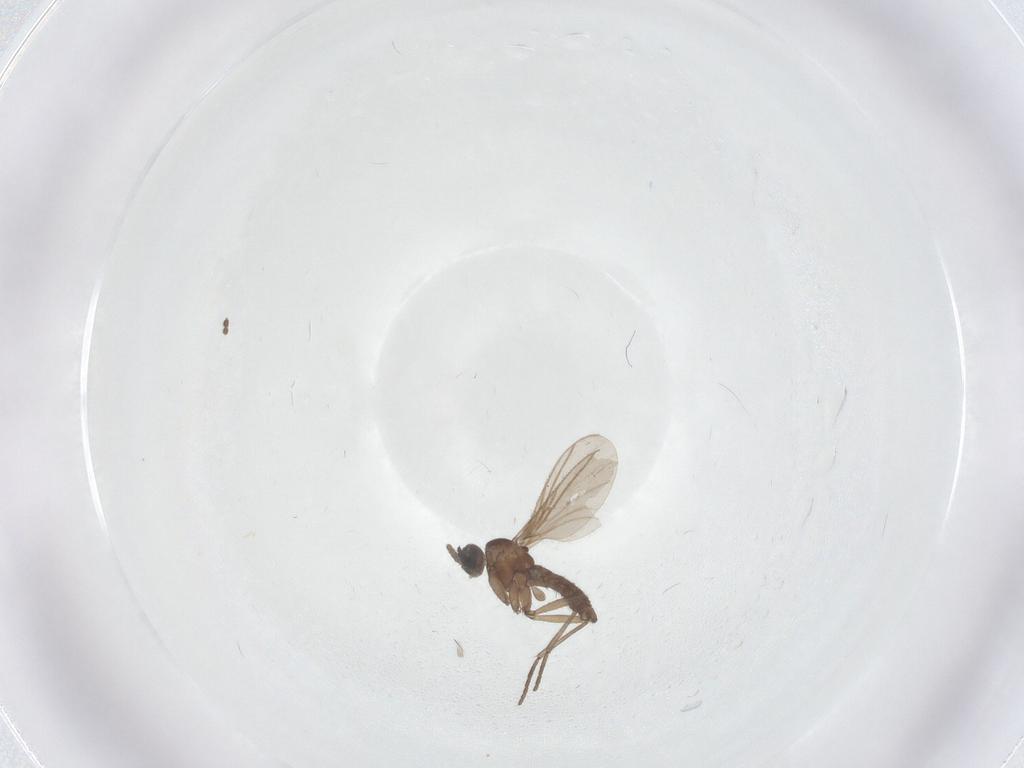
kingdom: Animalia
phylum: Arthropoda
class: Insecta
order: Diptera
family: Sciaridae
